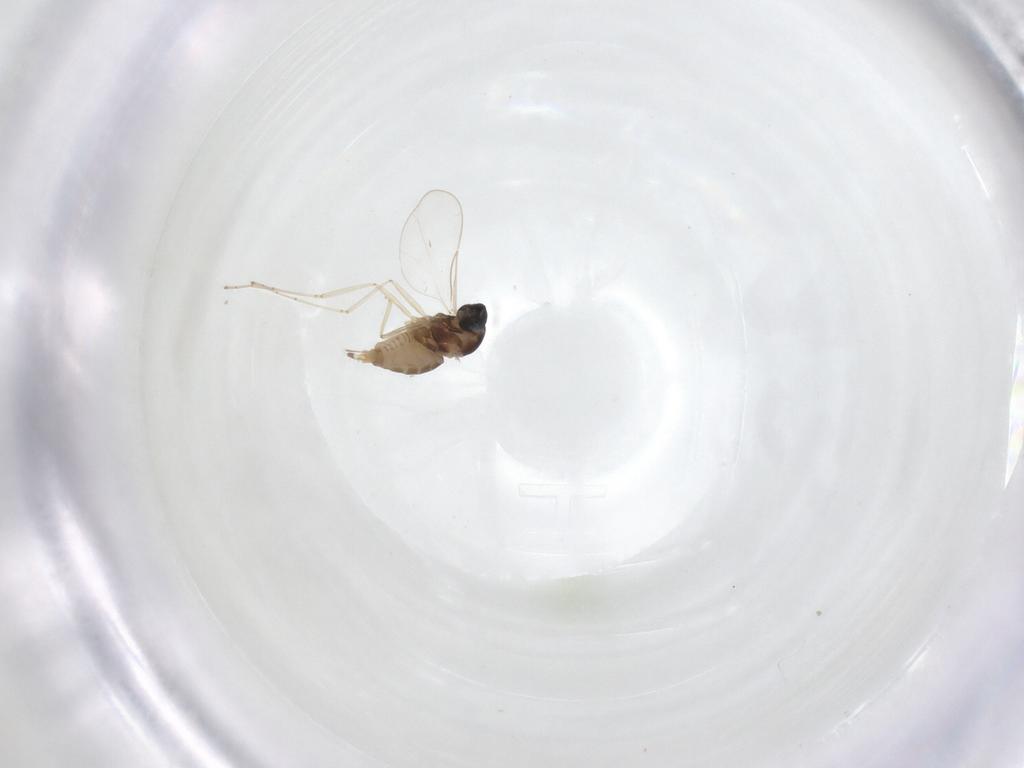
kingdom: Animalia
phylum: Arthropoda
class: Insecta
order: Diptera
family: Cecidomyiidae
